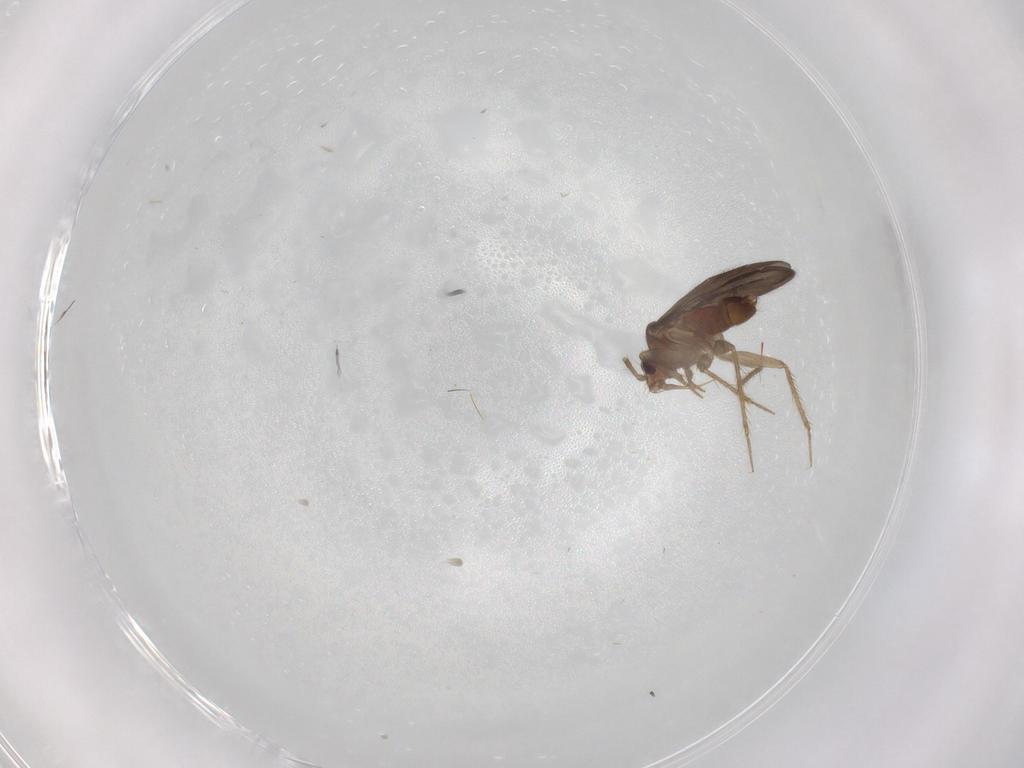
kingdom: Animalia
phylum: Arthropoda
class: Insecta
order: Hemiptera
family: Ceratocombidae
